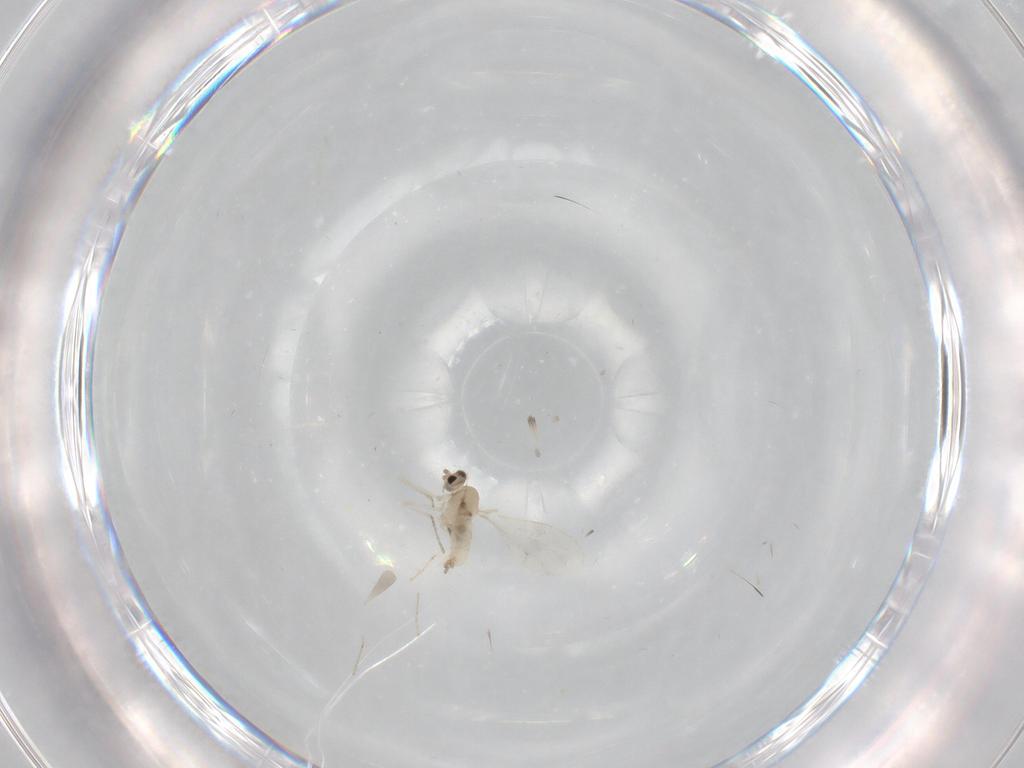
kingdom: Animalia
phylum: Arthropoda
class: Insecta
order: Diptera
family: Cecidomyiidae
